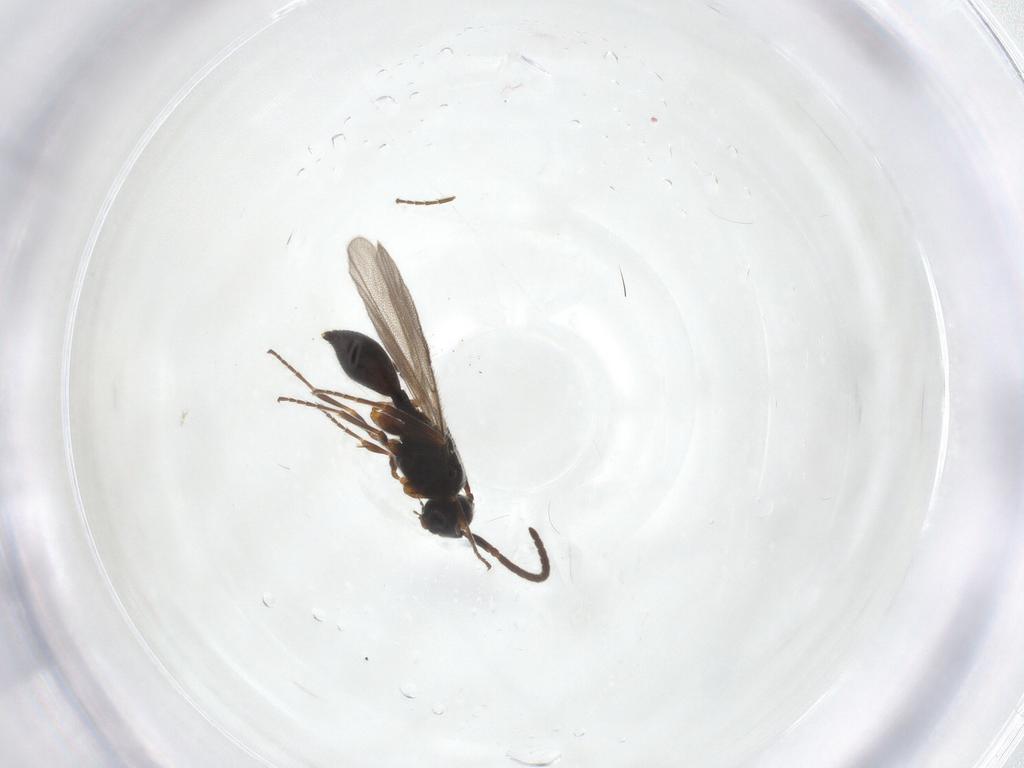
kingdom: Animalia
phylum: Arthropoda
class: Insecta
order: Hymenoptera
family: Diapriidae
